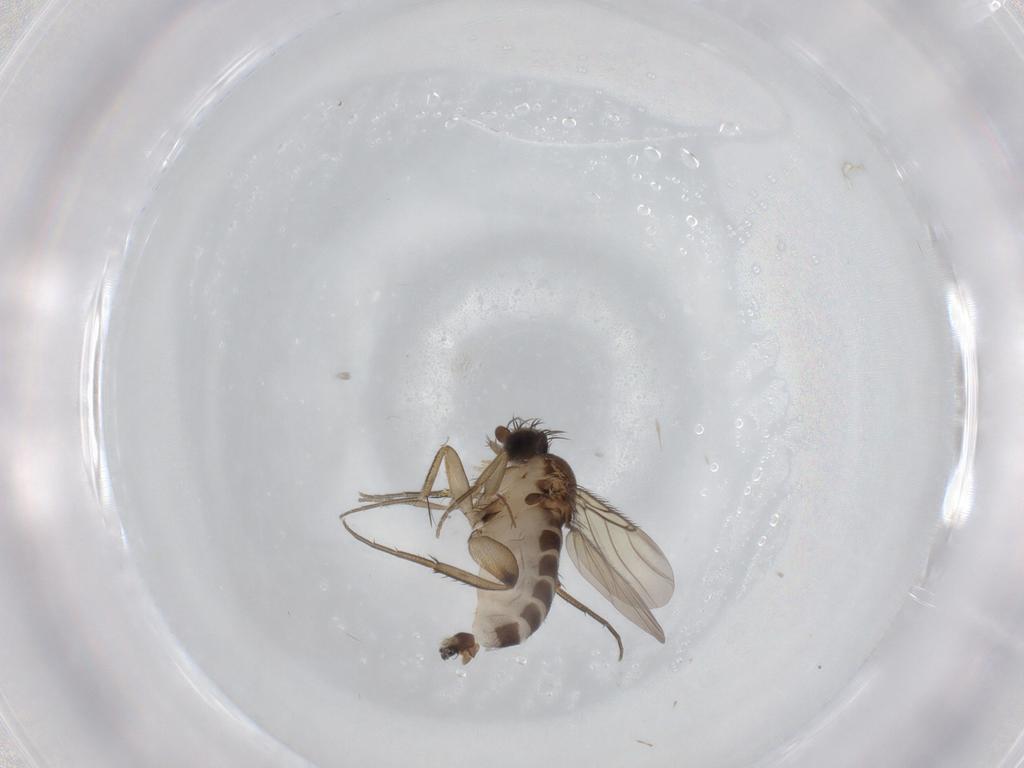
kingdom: Animalia
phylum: Arthropoda
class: Insecta
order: Diptera
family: Phoridae
